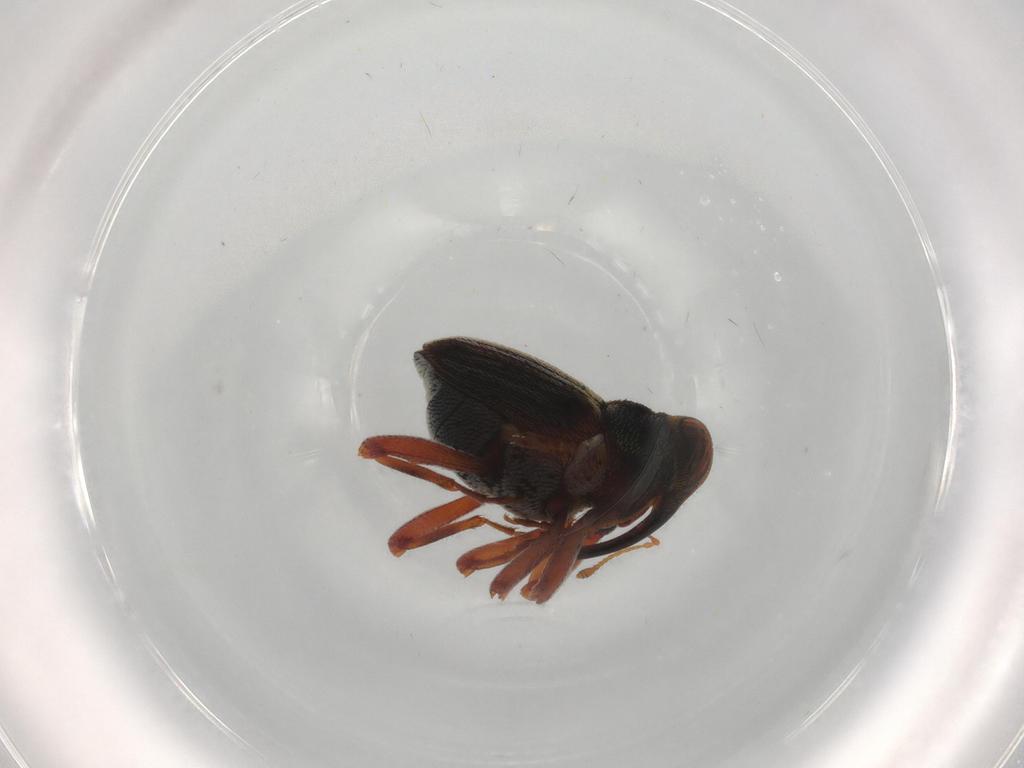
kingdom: Animalia
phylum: Arthropoda
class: Insecta
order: Coleoptera
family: Curculionidae
